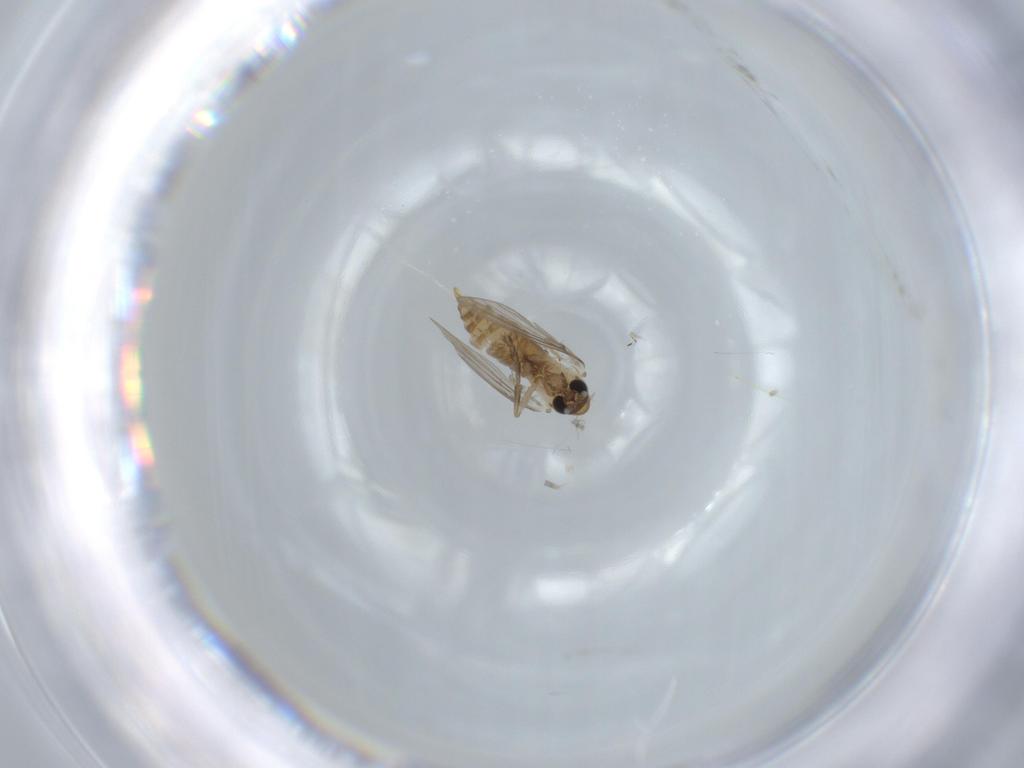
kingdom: Animalia
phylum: Arthropoda
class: Insecta
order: Diptera
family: Psychodidae
